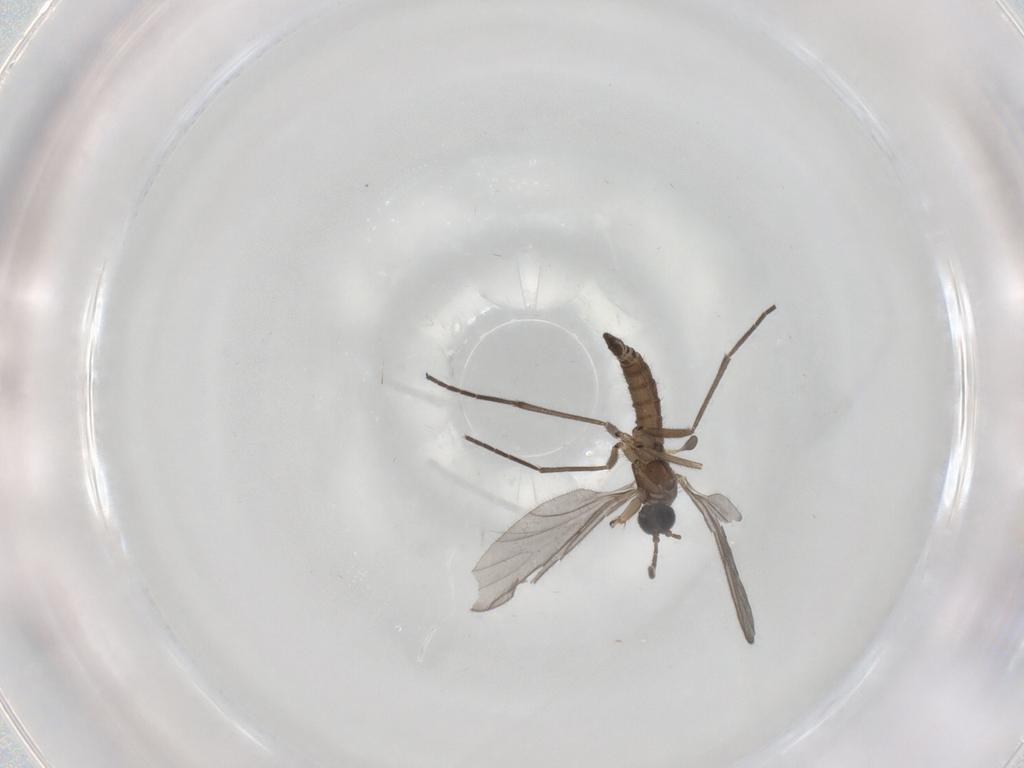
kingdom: Animalia
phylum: Arthropoda
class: Insecta
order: Diptera
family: Sciaridae
